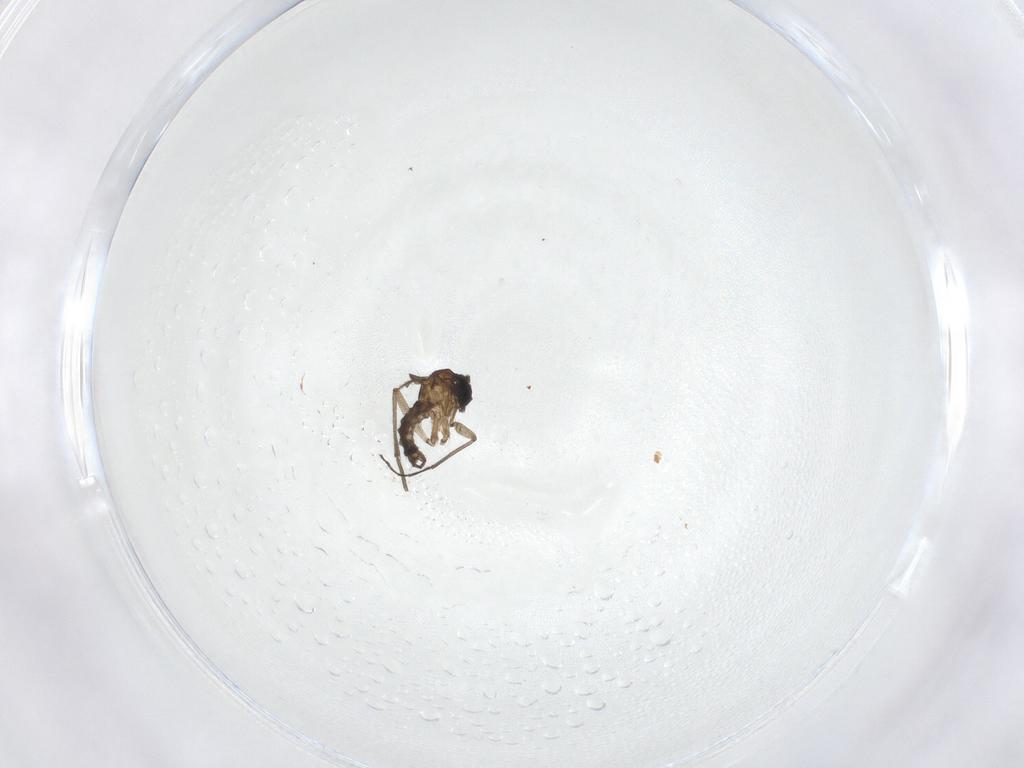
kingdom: Animalia
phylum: Arthropoda
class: Insecta
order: Diptera
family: Sciaridae
